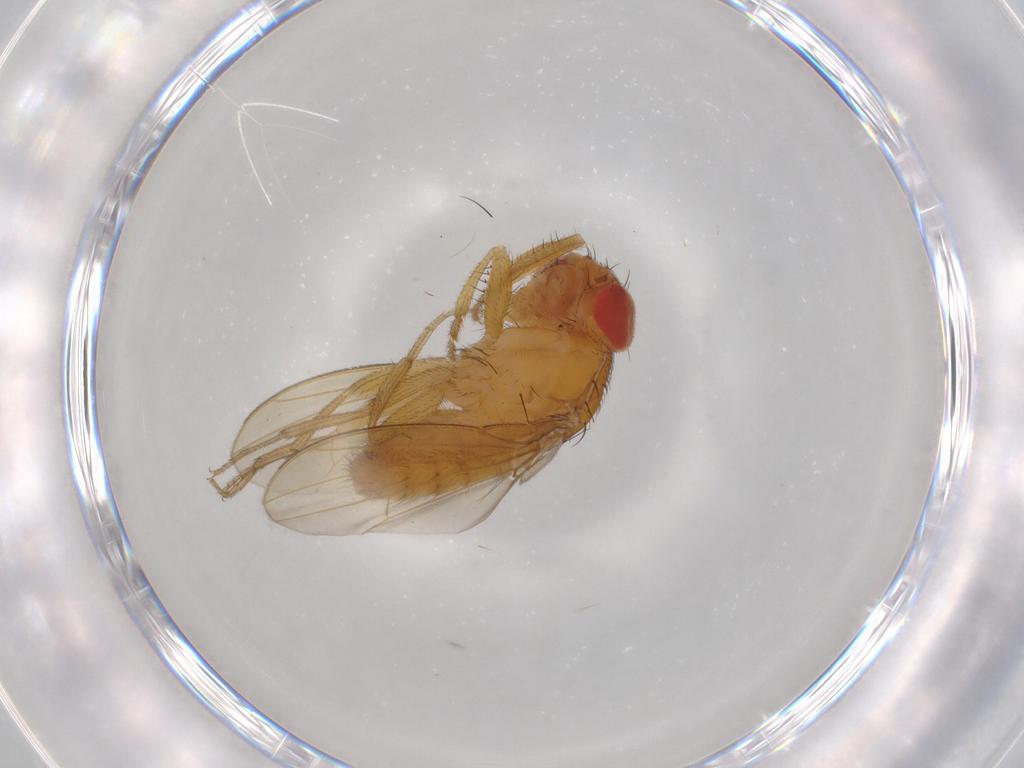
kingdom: Animalia
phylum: Arthropoda
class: Insecta
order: Diptera
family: Drosophilidae
